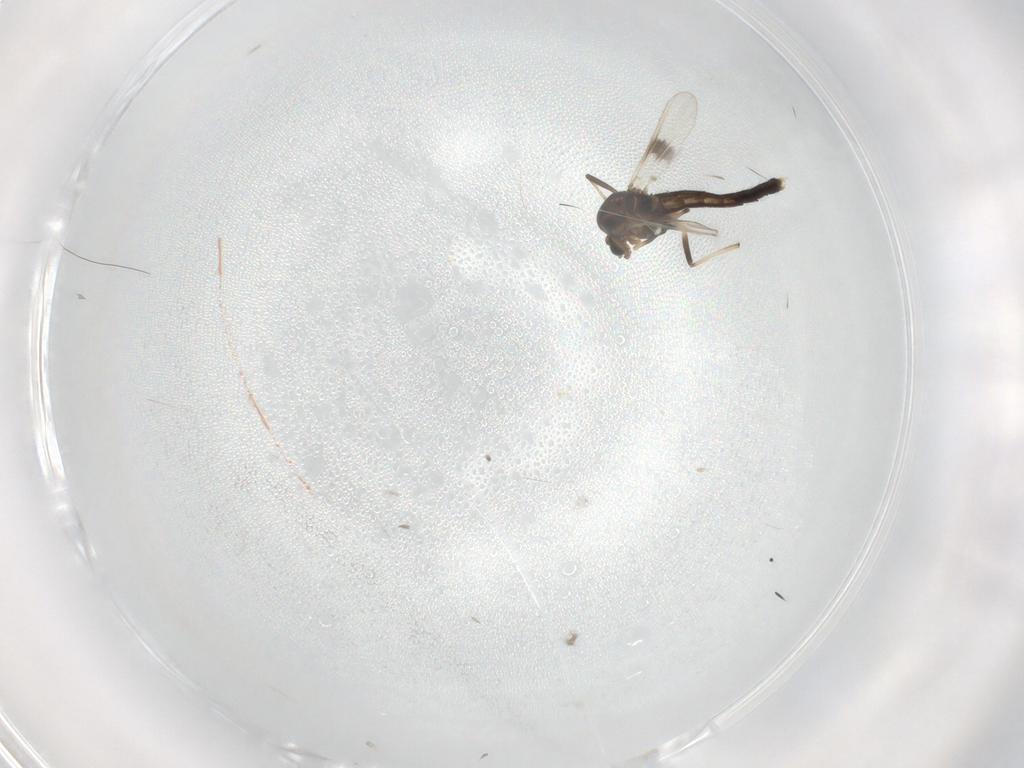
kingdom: Animalia
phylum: Arthropoda
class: Insecta
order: Diptera
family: Chironomidae
